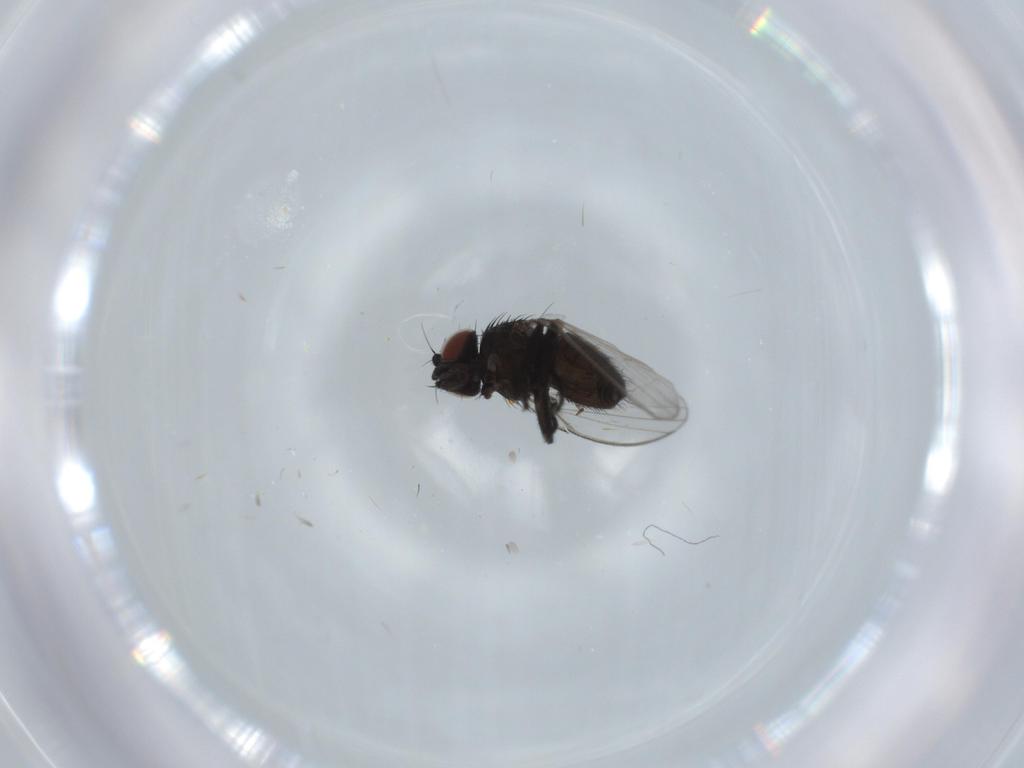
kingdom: Animalia
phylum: Arthropoda
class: Insecta
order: Diptera
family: Milichiidae
